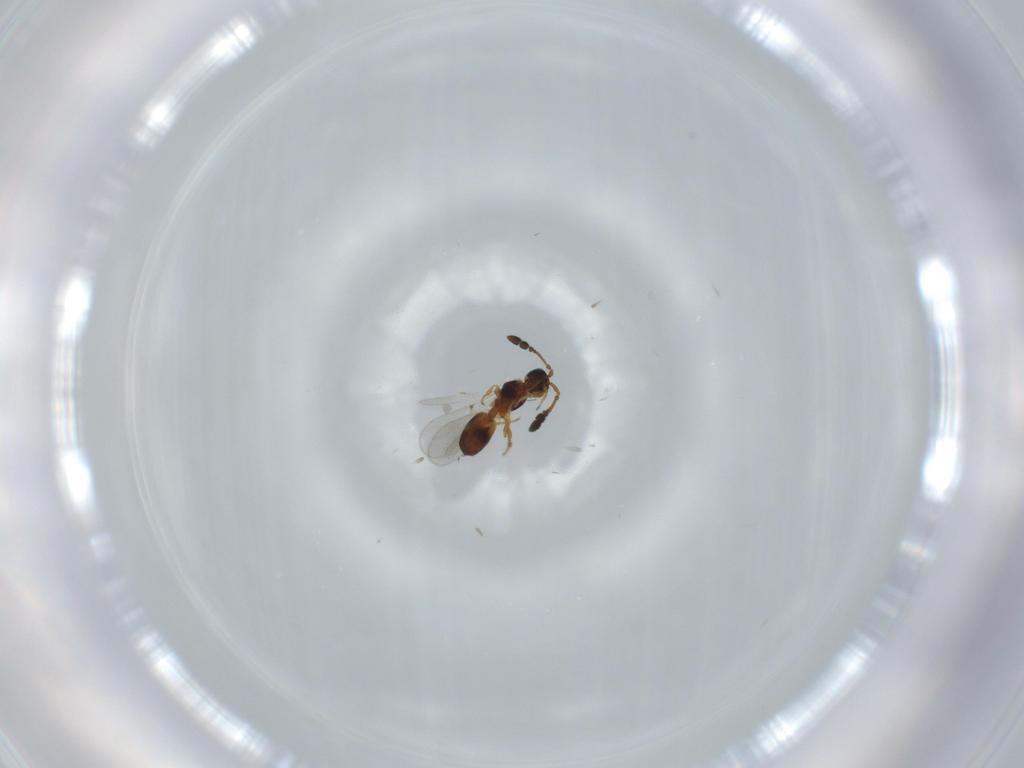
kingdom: Animalia
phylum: Arthropoda
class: Insecta
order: Hymenoptera
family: Diapriidae
